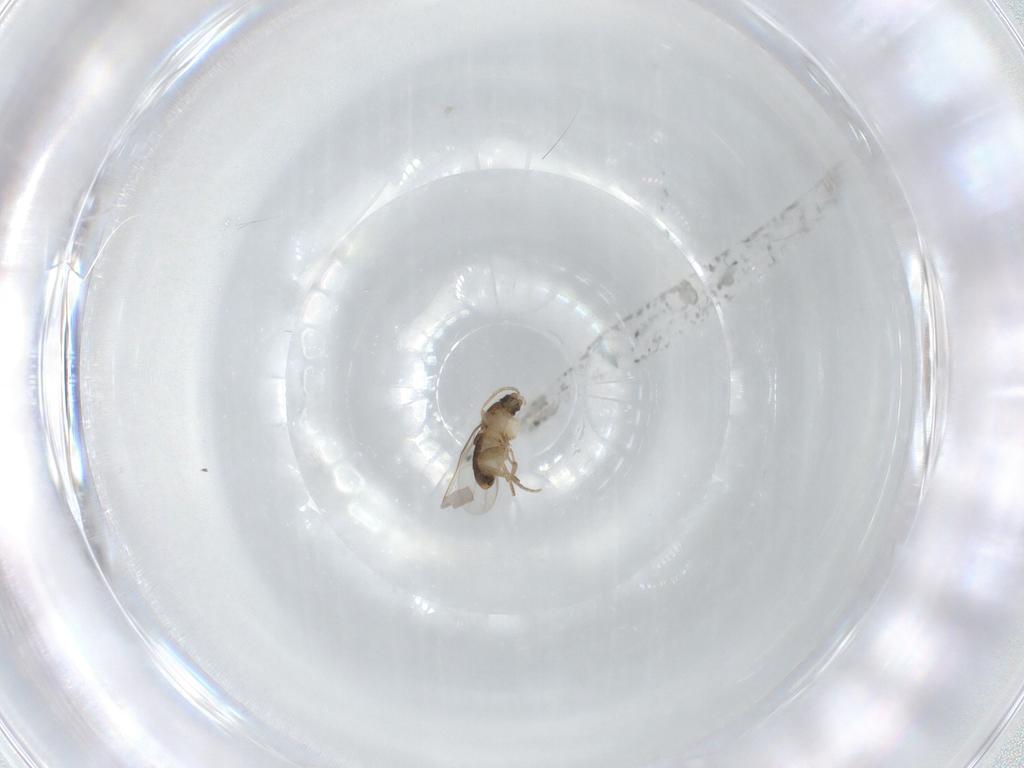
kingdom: Animalia
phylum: Arthropoda
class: Insecta
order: Diptera
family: Phoridae
